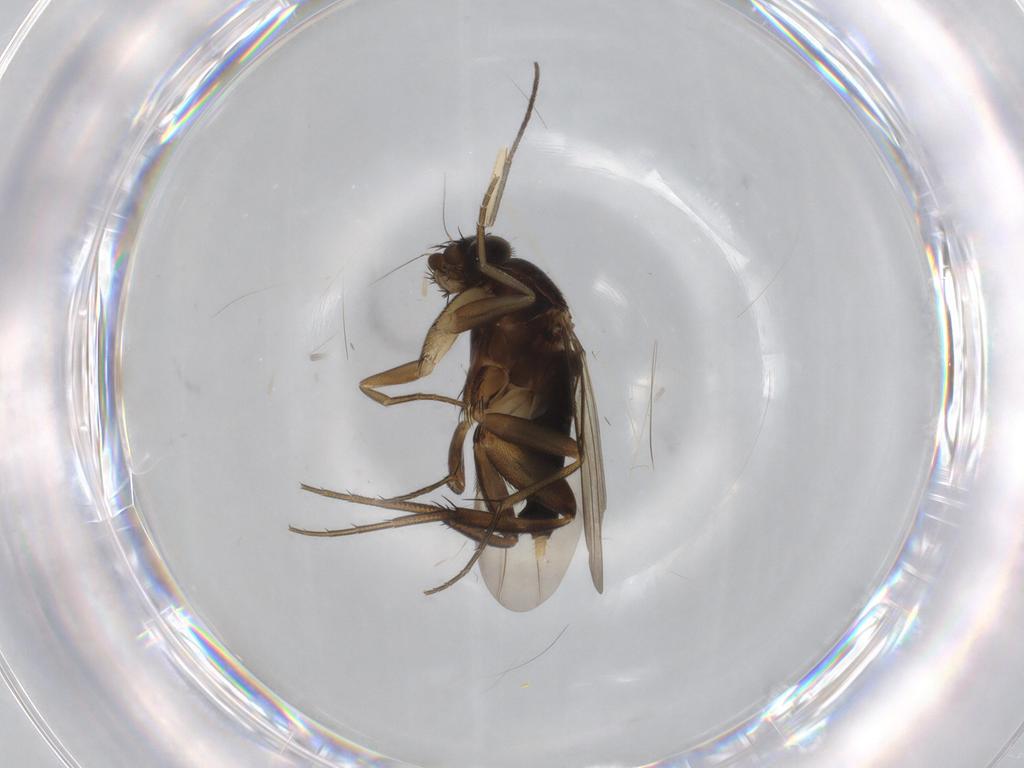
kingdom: Animalia
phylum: Arthropoda
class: Insecta
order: Diptera
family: Phoridae
